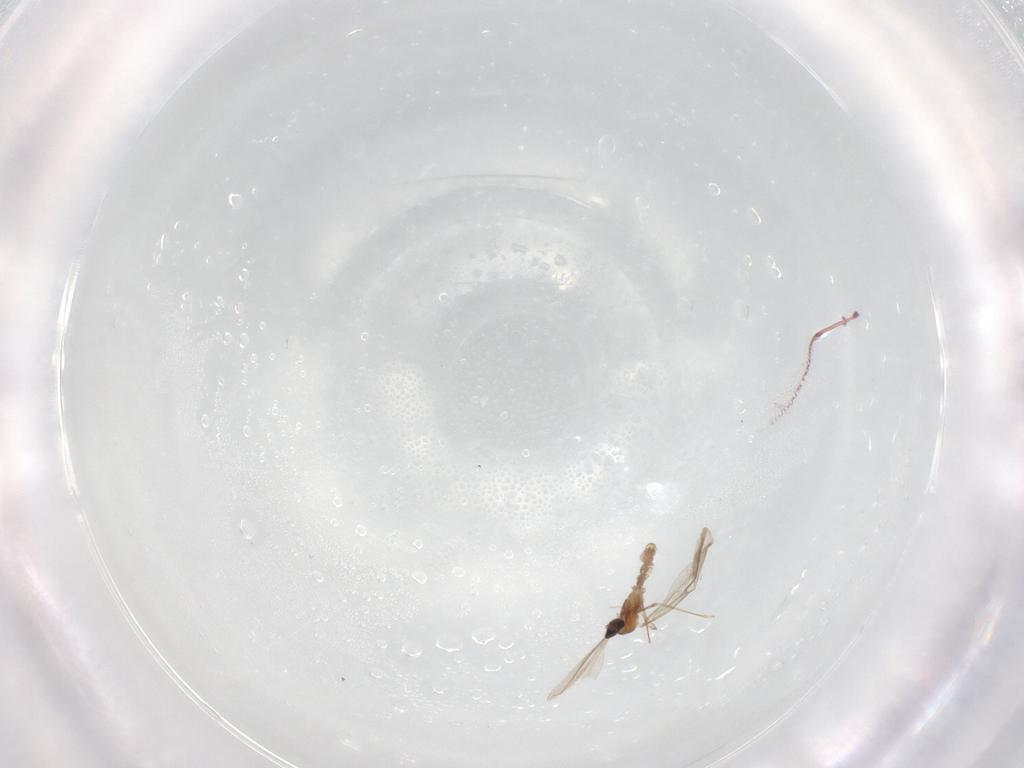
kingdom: Animalia
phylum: Arthropoda
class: Insecta
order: Diptera
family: Cecidomyiidae
